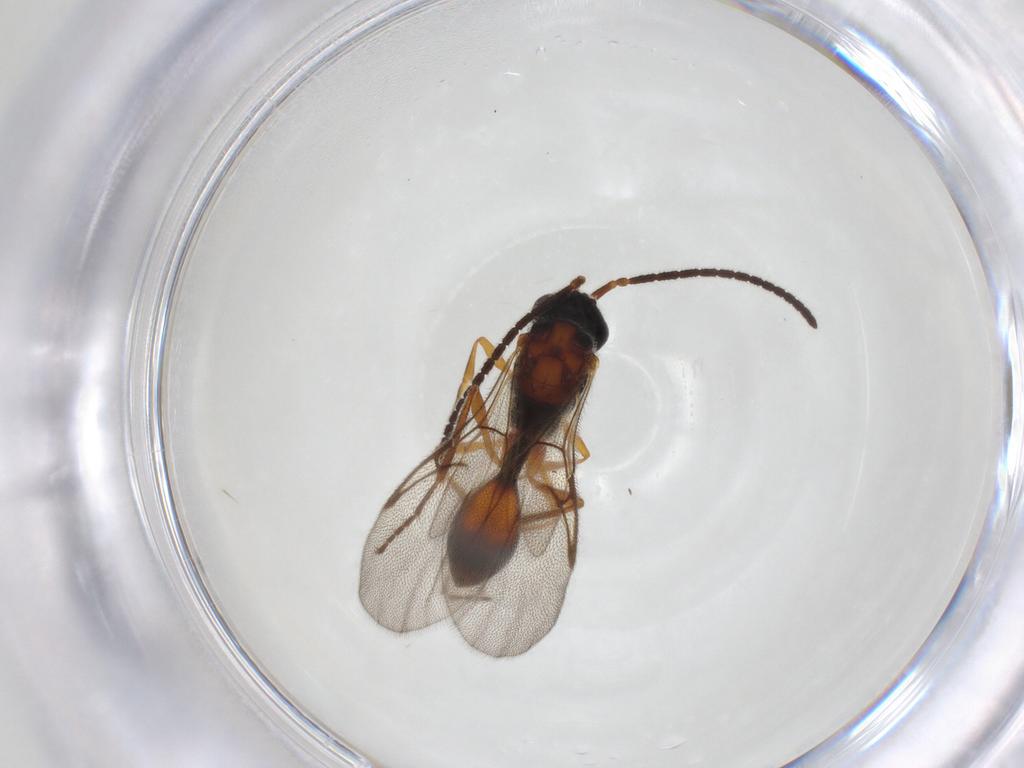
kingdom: Animalia
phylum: Arthropoda
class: Insecta
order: Hymenoptera
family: Diapriidae
